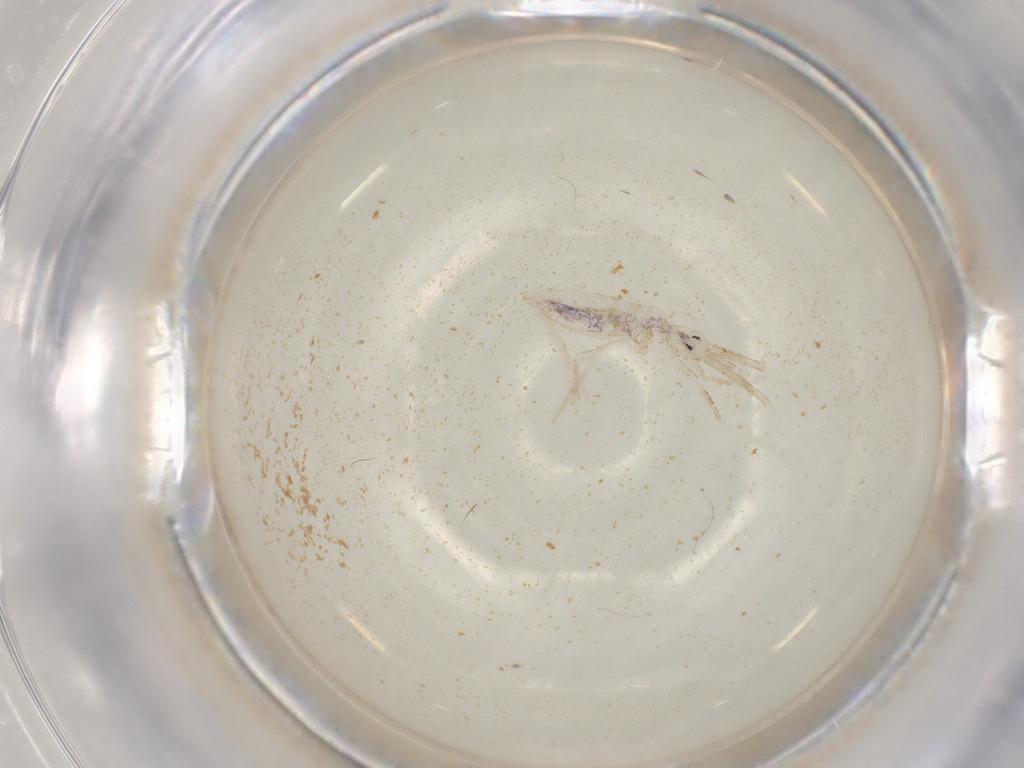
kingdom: Animalia
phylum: Arthropoda
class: Collembola
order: Entomobryomorpha
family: Paronellidae
